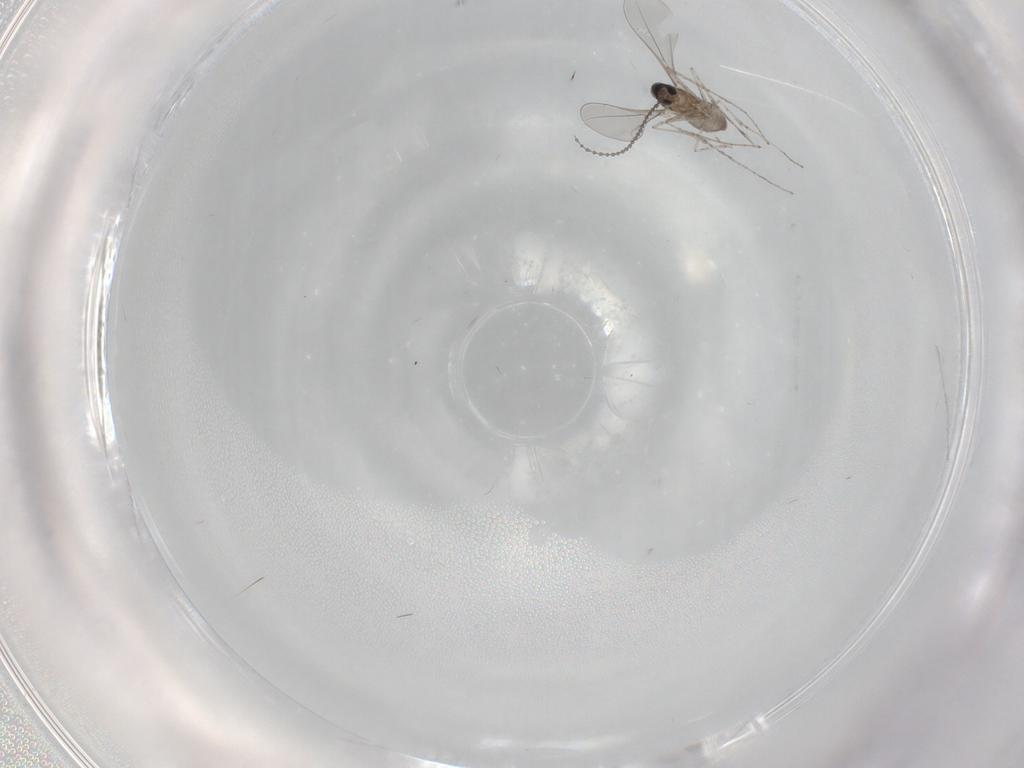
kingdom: Animalia
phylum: Arthropoda
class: Insecta
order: Diptera
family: Cecidomyiidae
